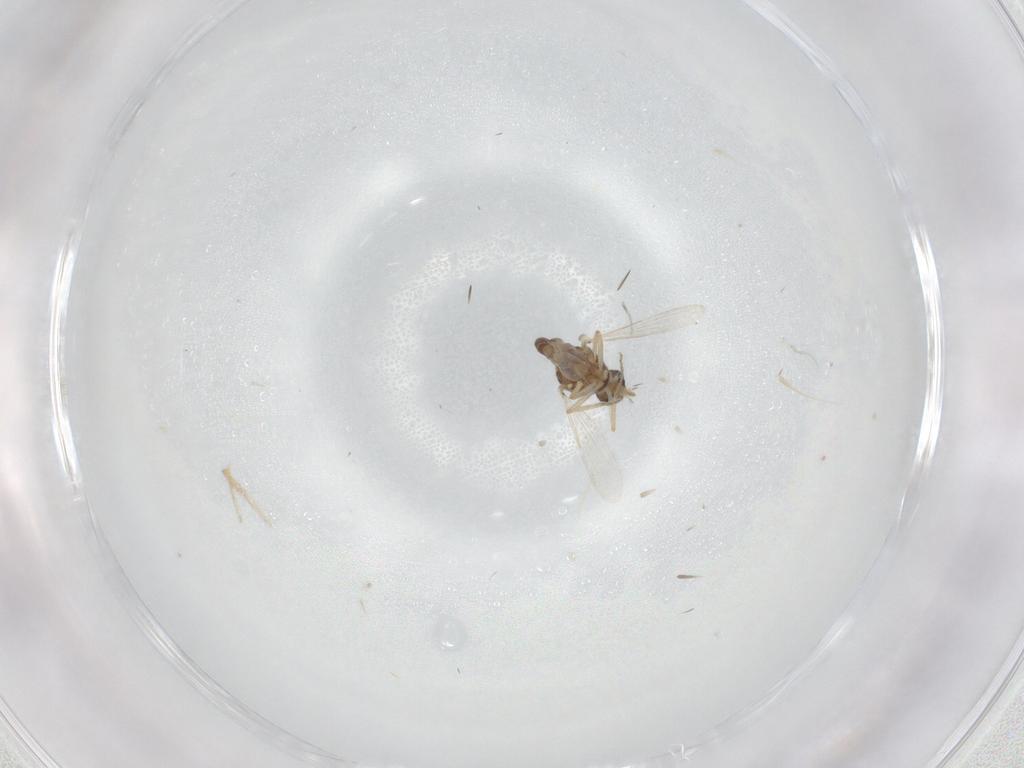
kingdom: Animalia
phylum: Arthropoda
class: Insecta
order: Diptera
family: Ceratopogonidae
